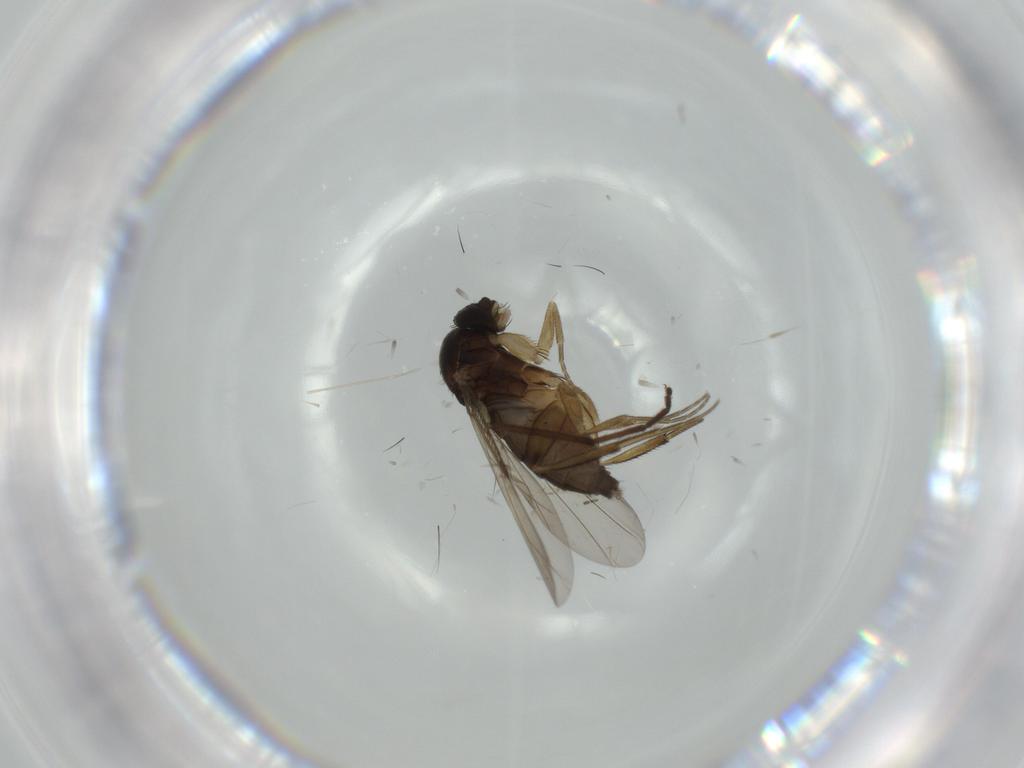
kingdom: Animalia
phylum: Arthropoda
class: Insecta
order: Diptera
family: Phoridae
